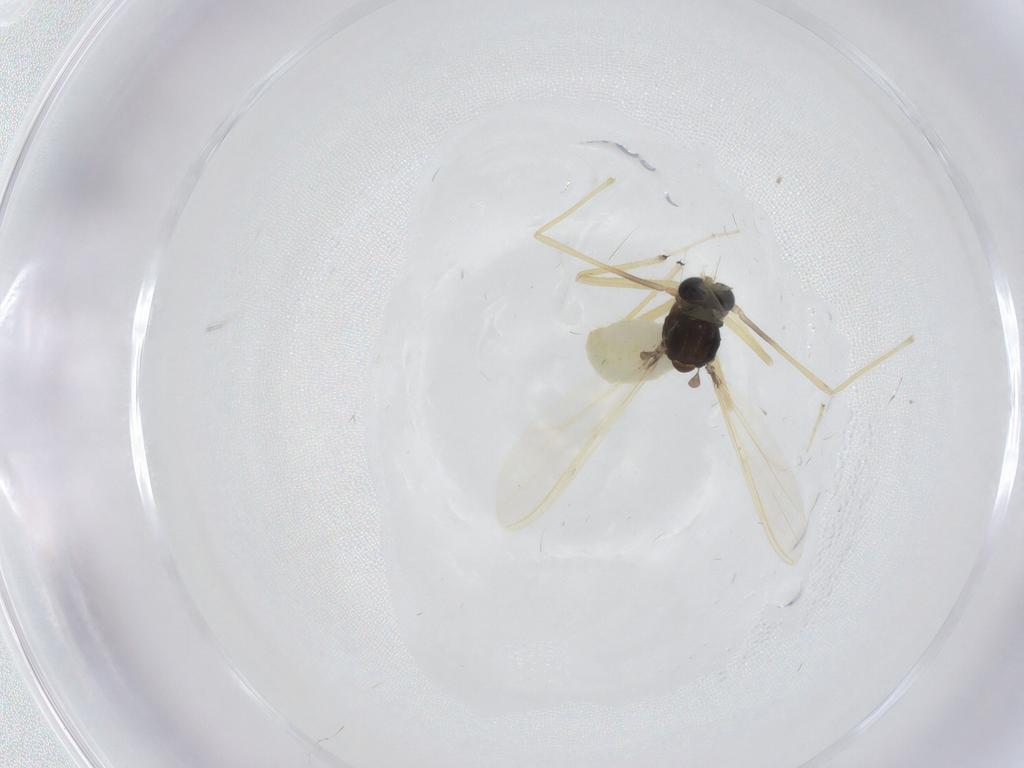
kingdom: Animalia
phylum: Arthropoda
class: Insecta
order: Diptera
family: Chironomidae
